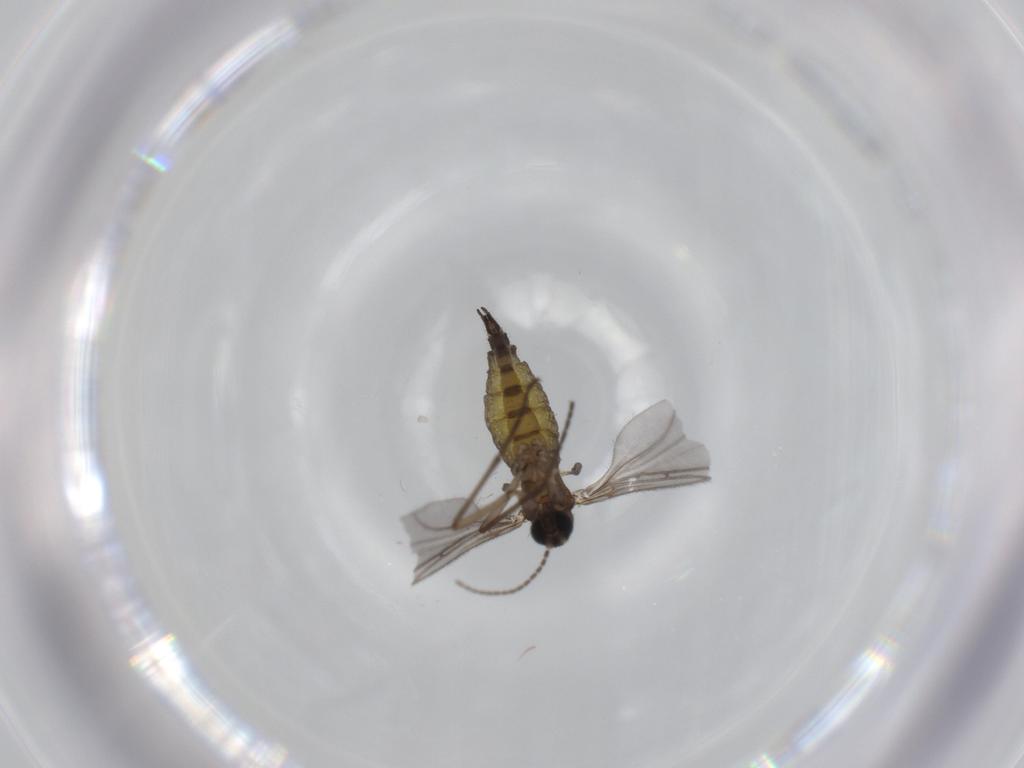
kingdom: Animalia
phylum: Arthropoda
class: Insecta
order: Diptera
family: Sciaridae
